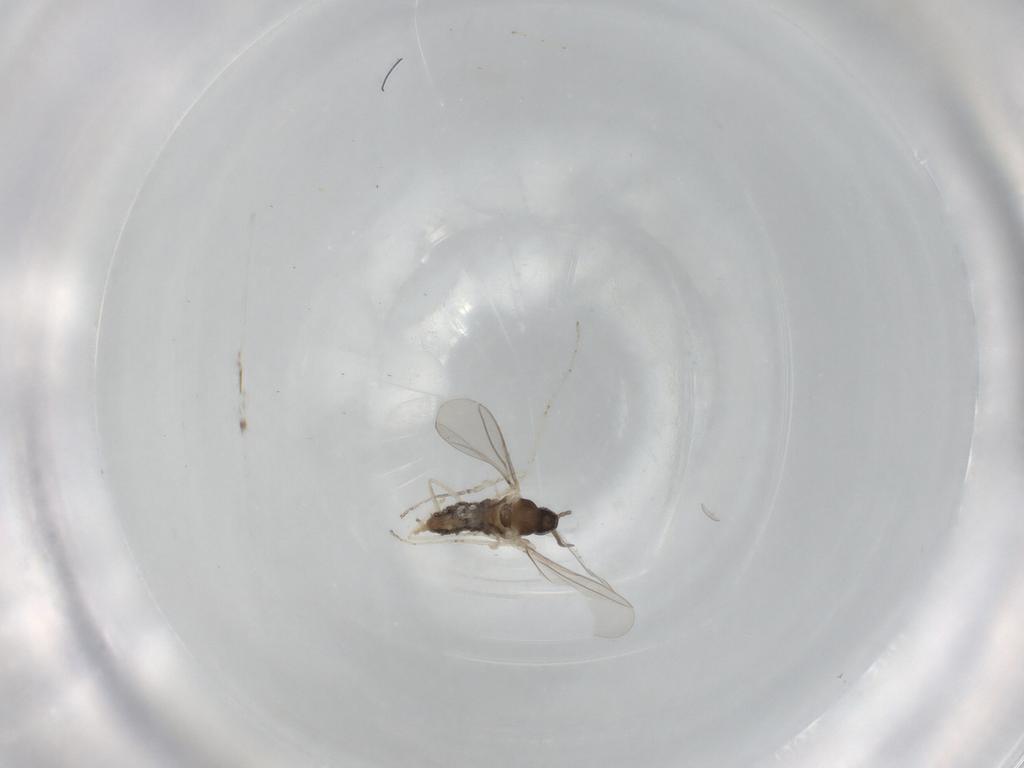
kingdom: Animalia
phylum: Arthropoda
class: Insecta
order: Diptera
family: Cecidomyiidae
